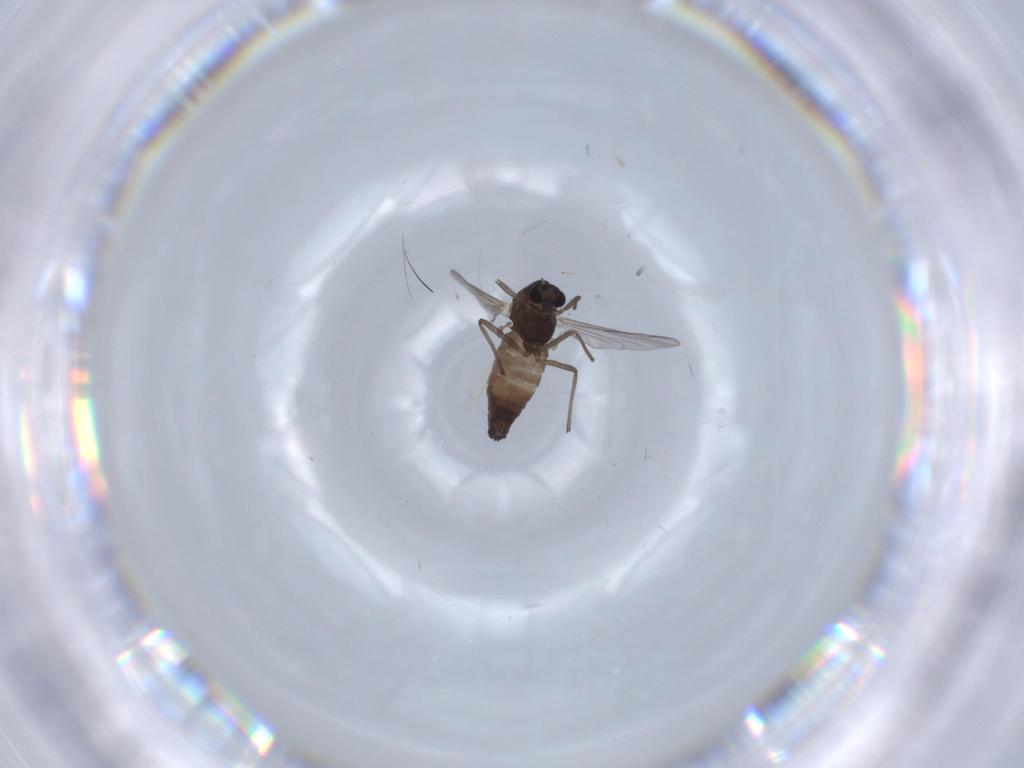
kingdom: Animalia
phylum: Arthropoda
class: Insecta
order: Diptera
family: Chironomidae
